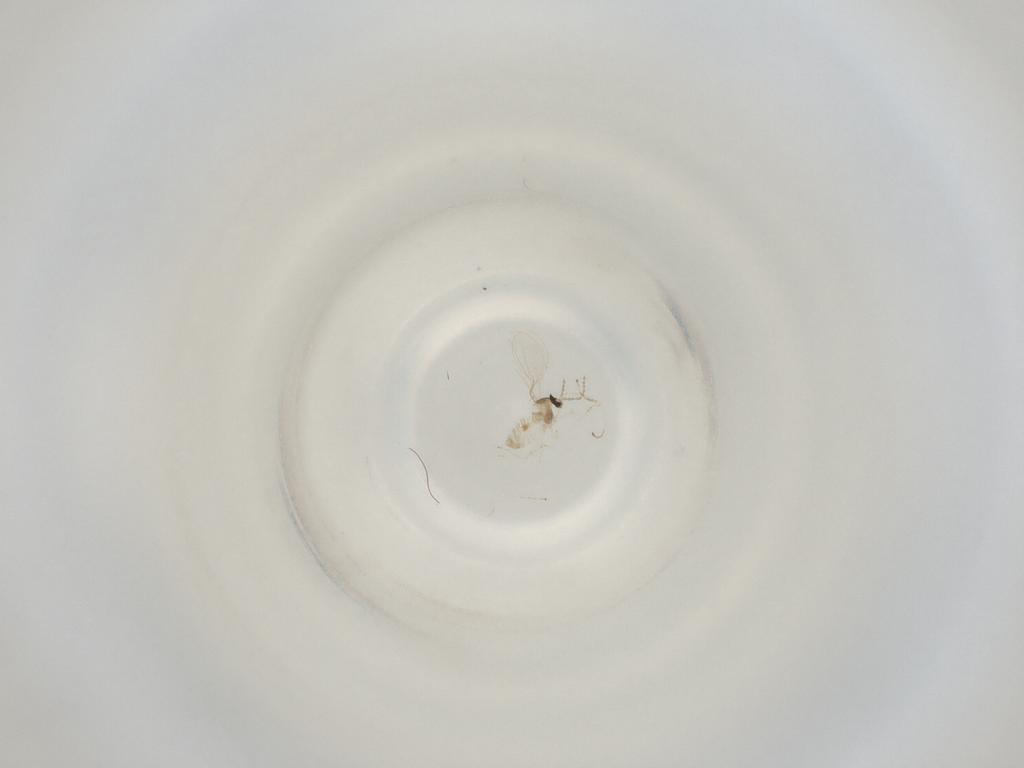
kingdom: Animalia
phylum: Arthropoda
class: Insecta
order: Diptera
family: Cecidomyiidae
